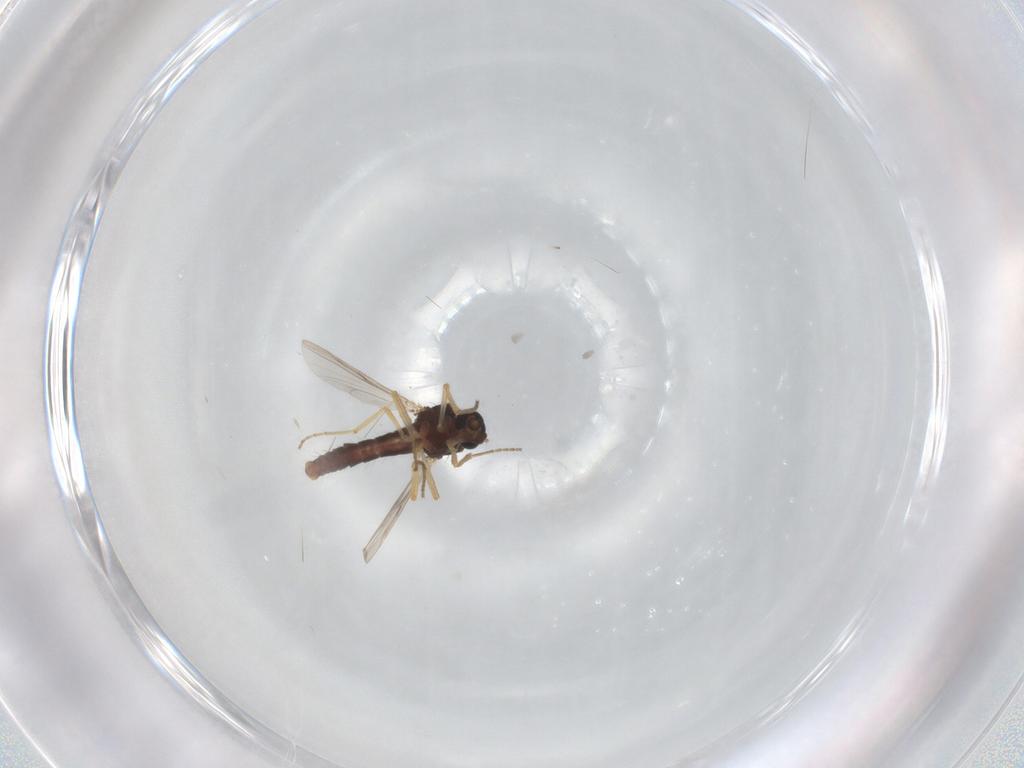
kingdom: Animalia
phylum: Arthropoda
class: Insecta
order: Diptera
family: Ceratopogonidae
